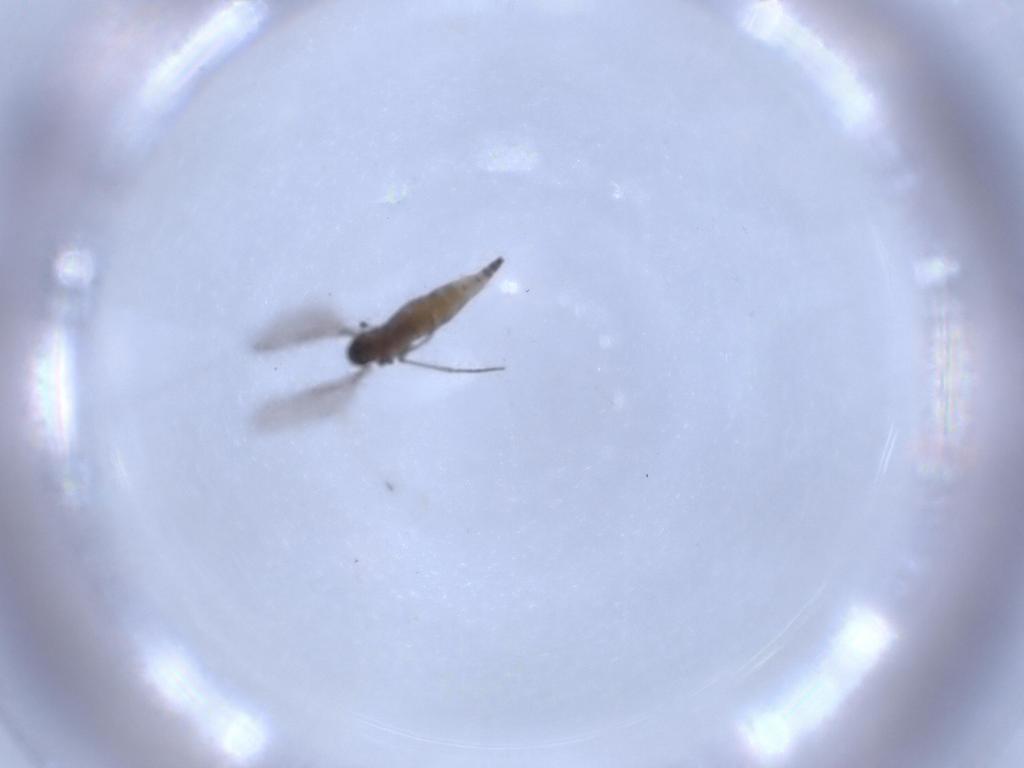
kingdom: Animalia
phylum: Arthropoda
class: Insecta
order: Diptera
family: Sciaridae
